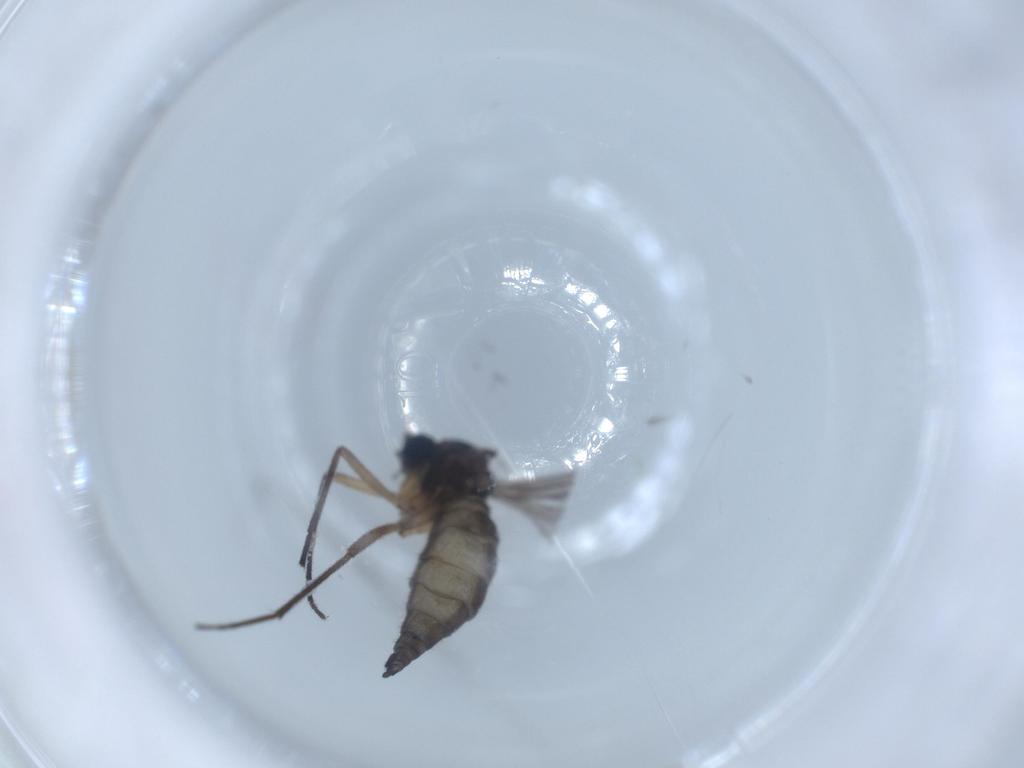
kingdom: Animalia
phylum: Arthropoda
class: Insecta
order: Diptera
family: Sciaridae
